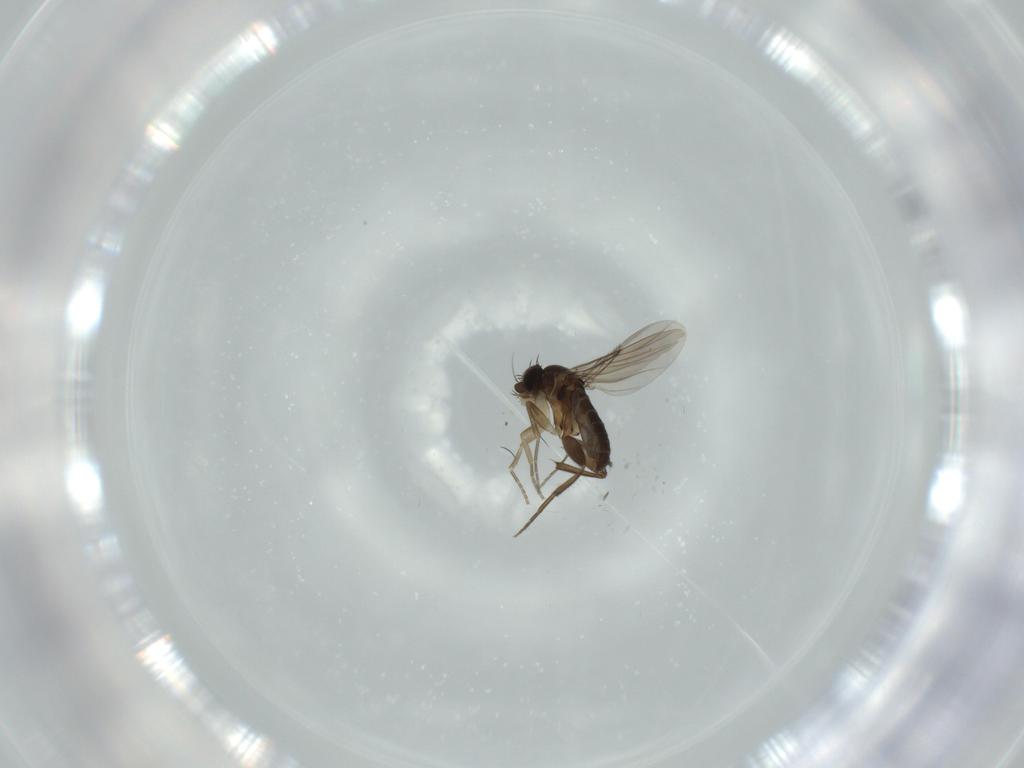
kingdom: Animalia
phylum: Arthropoda
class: Insecta
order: Diptera
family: Phoridae
